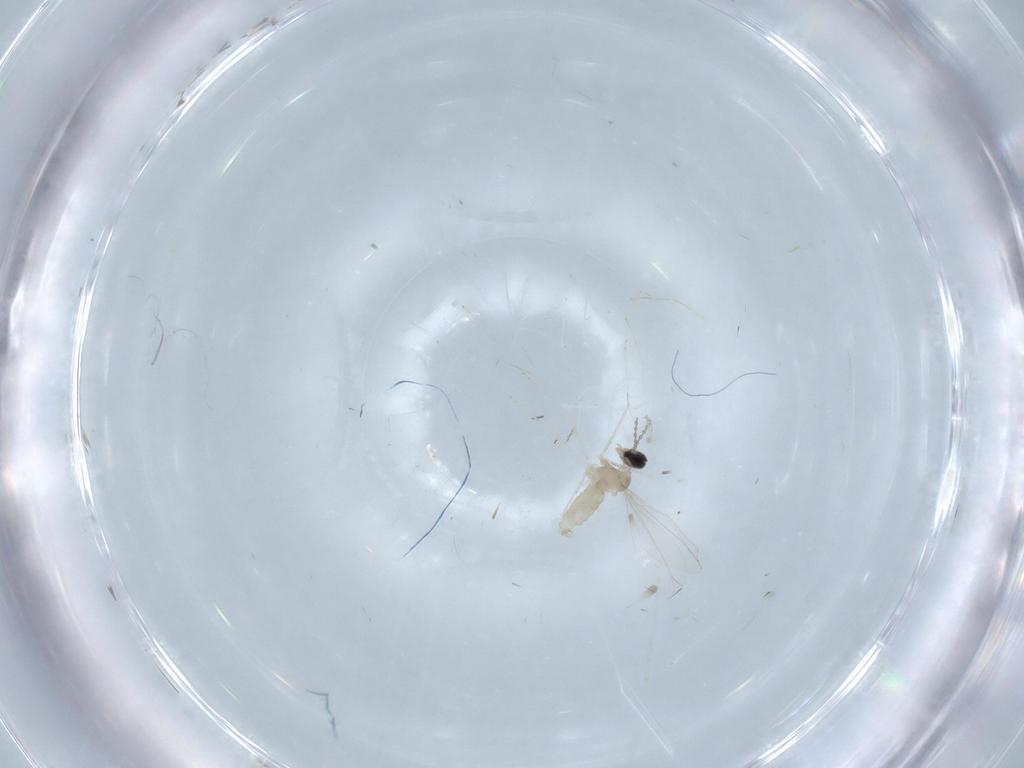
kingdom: Animalia
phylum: Arthropoda
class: Insecta
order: Diptera
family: Cecidomyiidae
